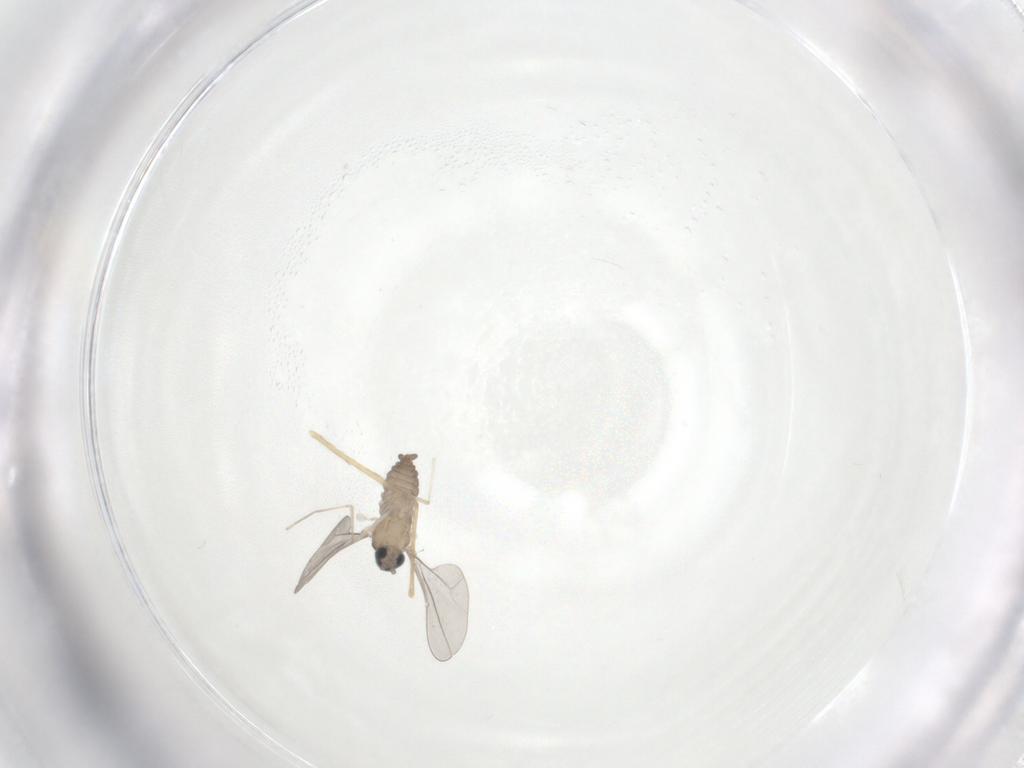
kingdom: Animalia
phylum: Arthropoda
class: Insecta
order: Diptera
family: Cecidomyiidae
